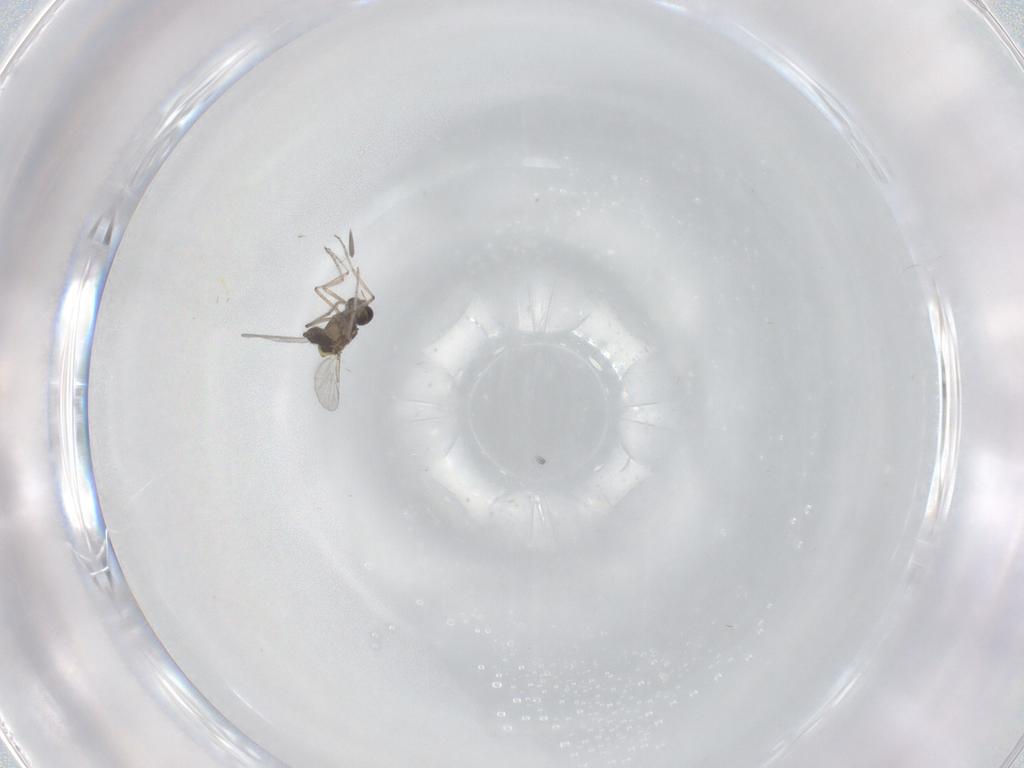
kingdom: Animalia
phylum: Arthropoda
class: Insecta
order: Diptera
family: Ceratopogonidae
